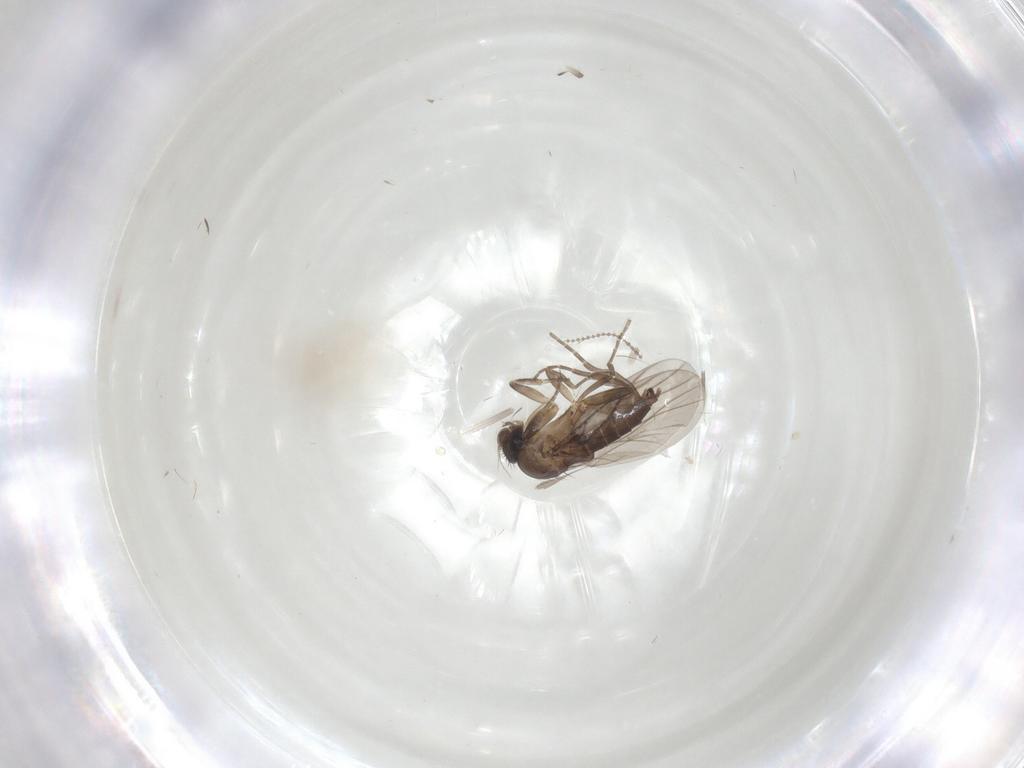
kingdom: Animalia
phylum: Arthropoda
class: Insecta
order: Diptera
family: Cecidomyiidae
